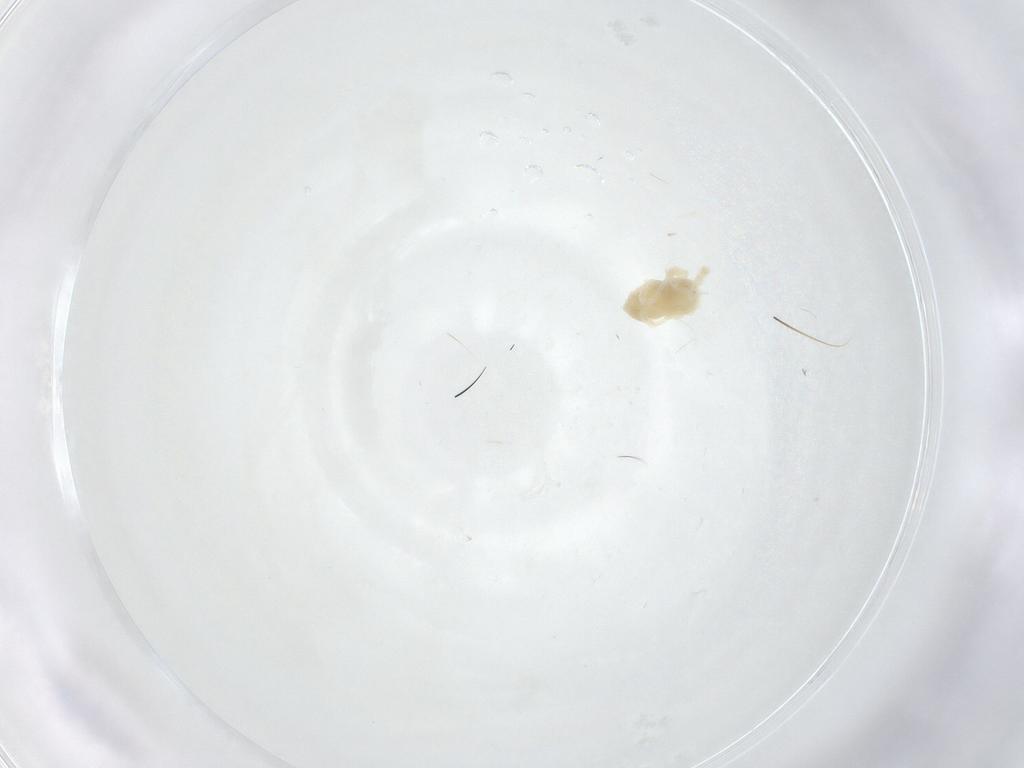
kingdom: Animalia
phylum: Arthropoda
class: Arachnida
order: Trombidiformes
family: Anystidae
